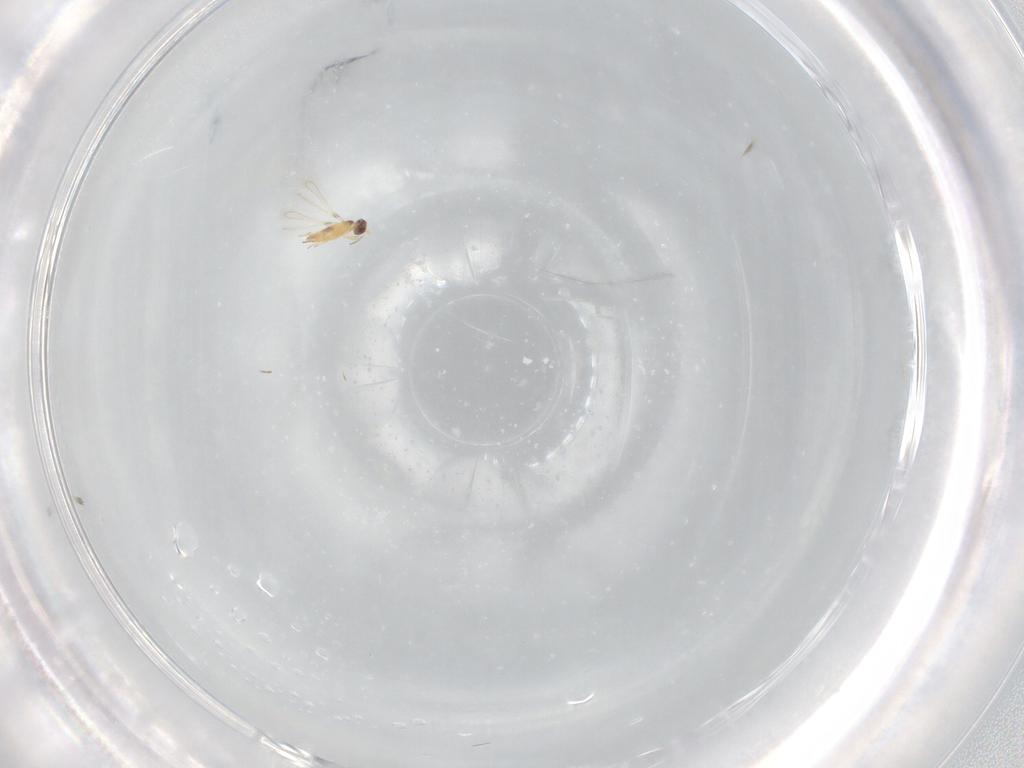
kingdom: Animalia
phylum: Arthropoda
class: Insecta
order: Hymenoptera
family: Mymaridae
